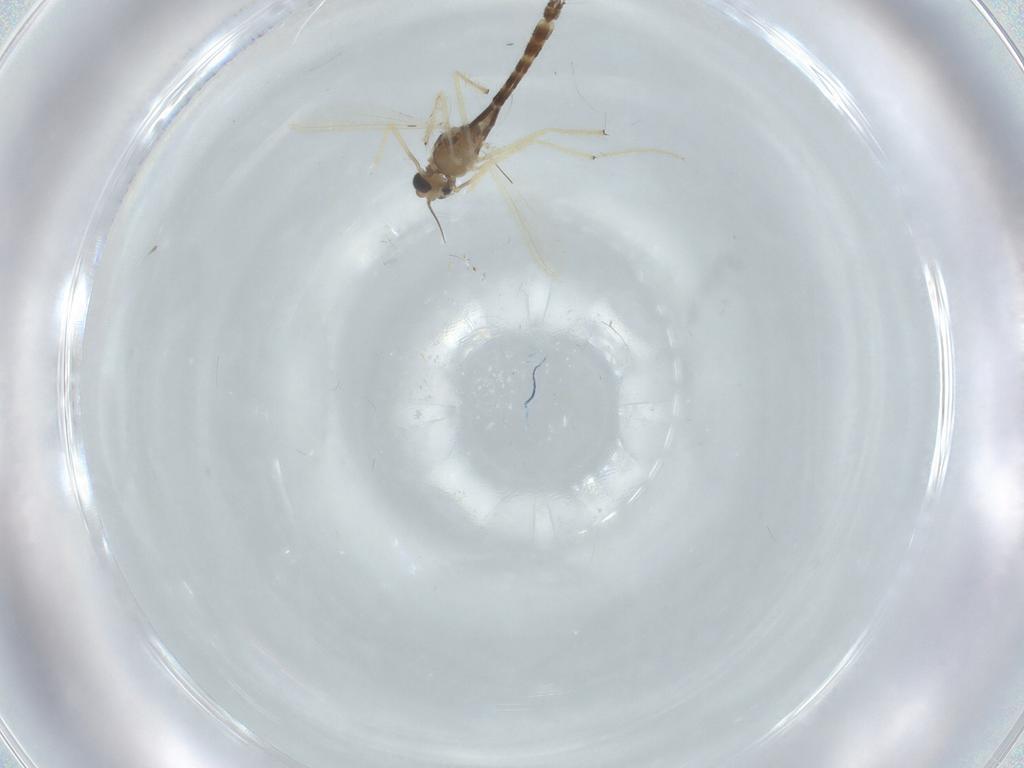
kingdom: Animalia
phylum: Arthropoda
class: Insecta
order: Diptera
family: Chironomidae
